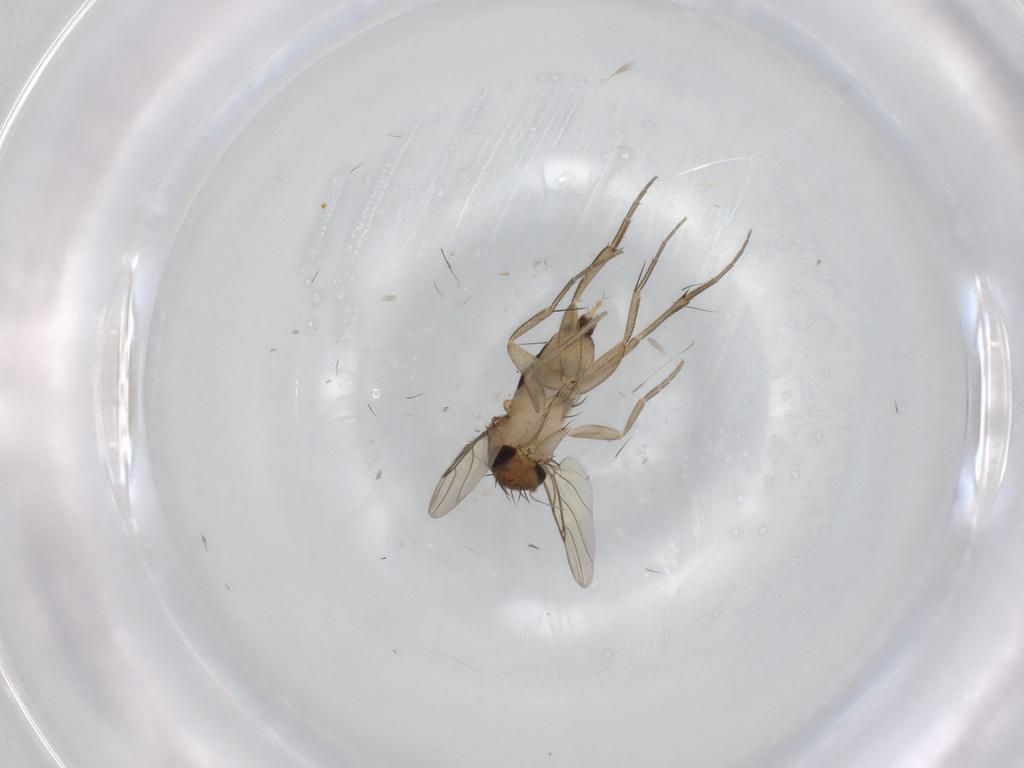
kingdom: Animalia
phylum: Arthropoda
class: Insecta
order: Diptera
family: Phoridae
